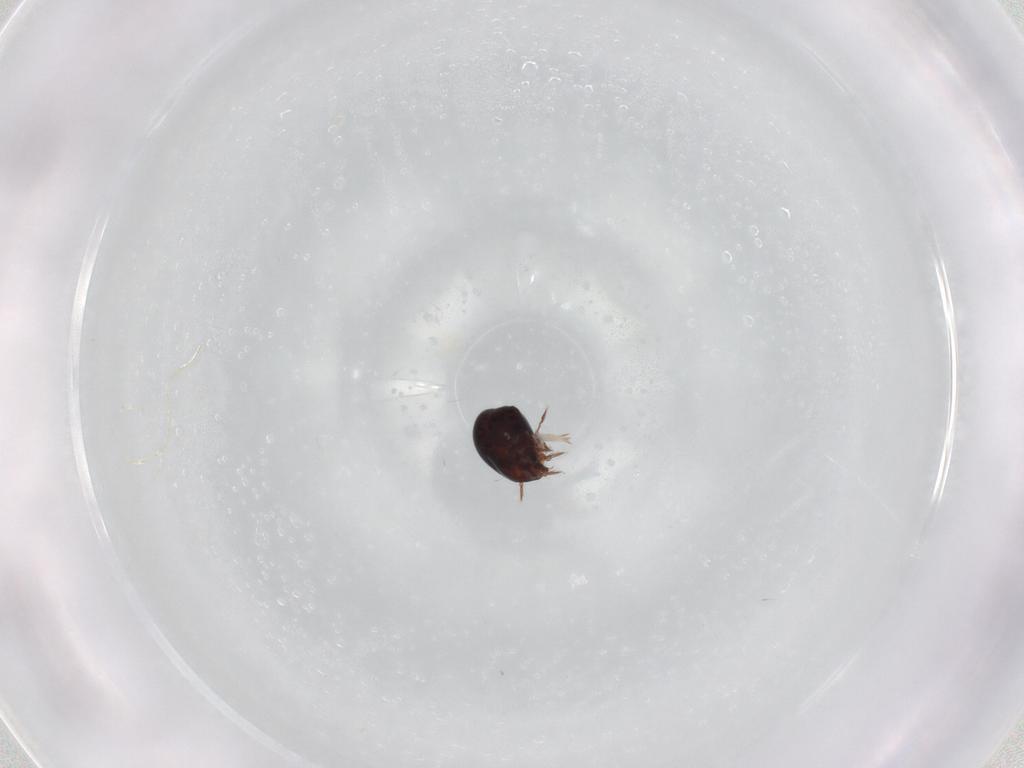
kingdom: Animalia
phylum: Arthropoda
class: Arachnida
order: Sarcoptiformes
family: Galumnidae
